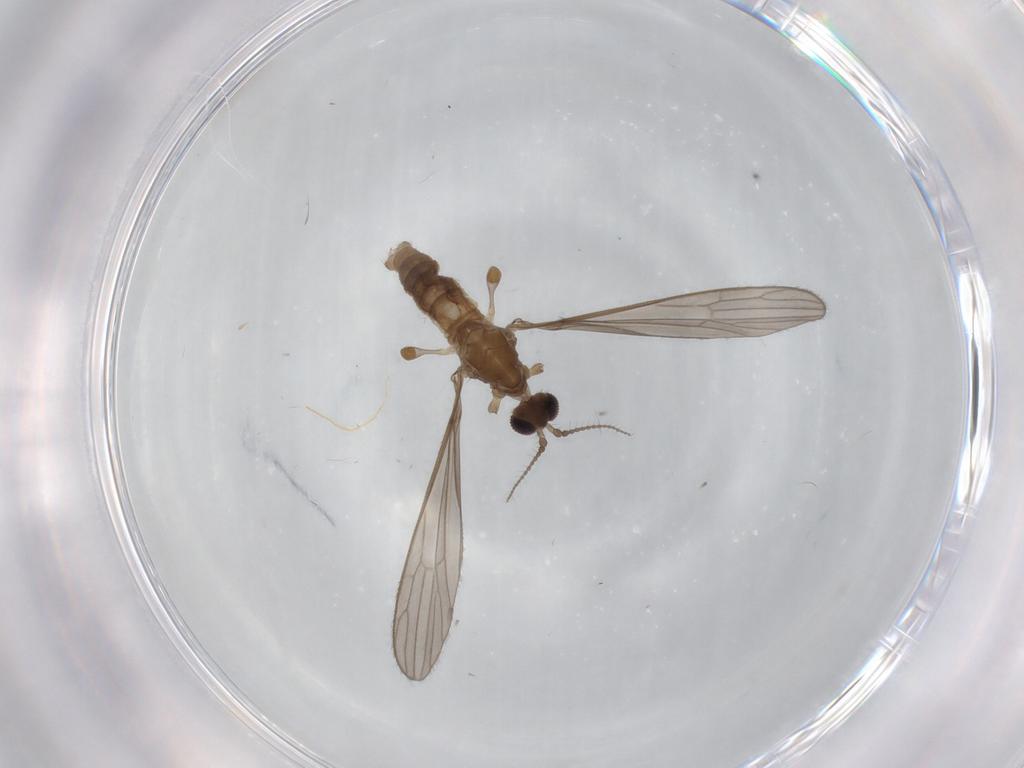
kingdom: Animalia
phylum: Arthropoda
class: Insecta
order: Diptera
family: Limoniidae
